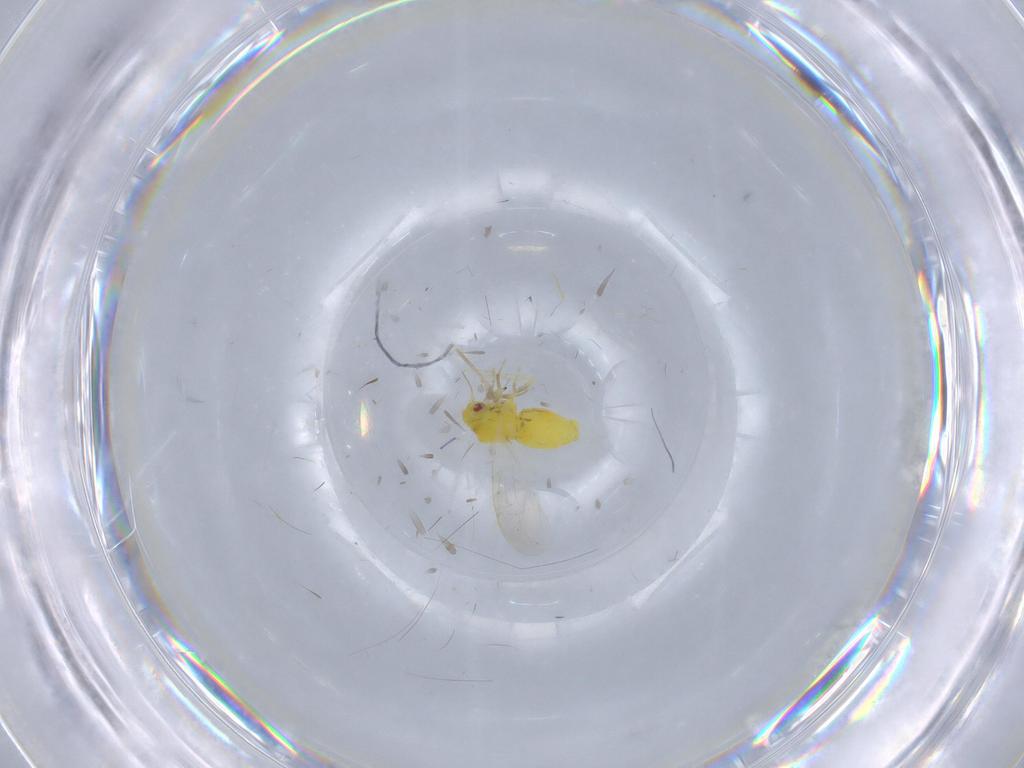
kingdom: Animalia
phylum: Arthropoda
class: Insecta
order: Hemiptera
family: Aleyrodidae
